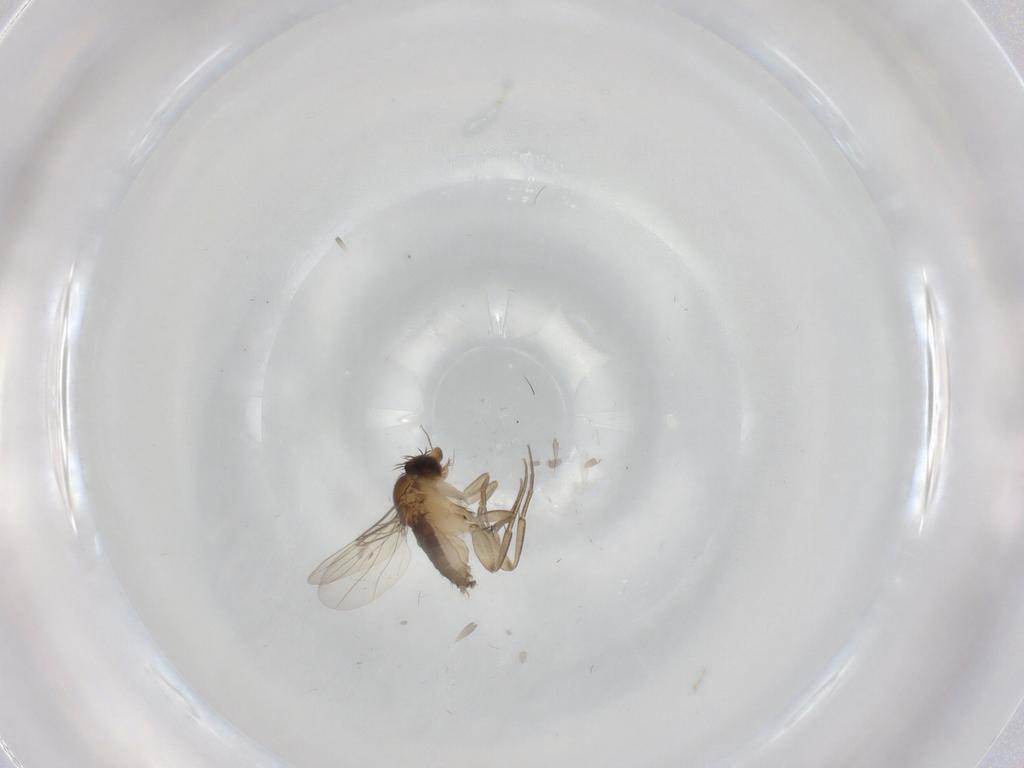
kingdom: Animalia
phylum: Arthropoda
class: Insecta
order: Diptera
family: Phoridae
